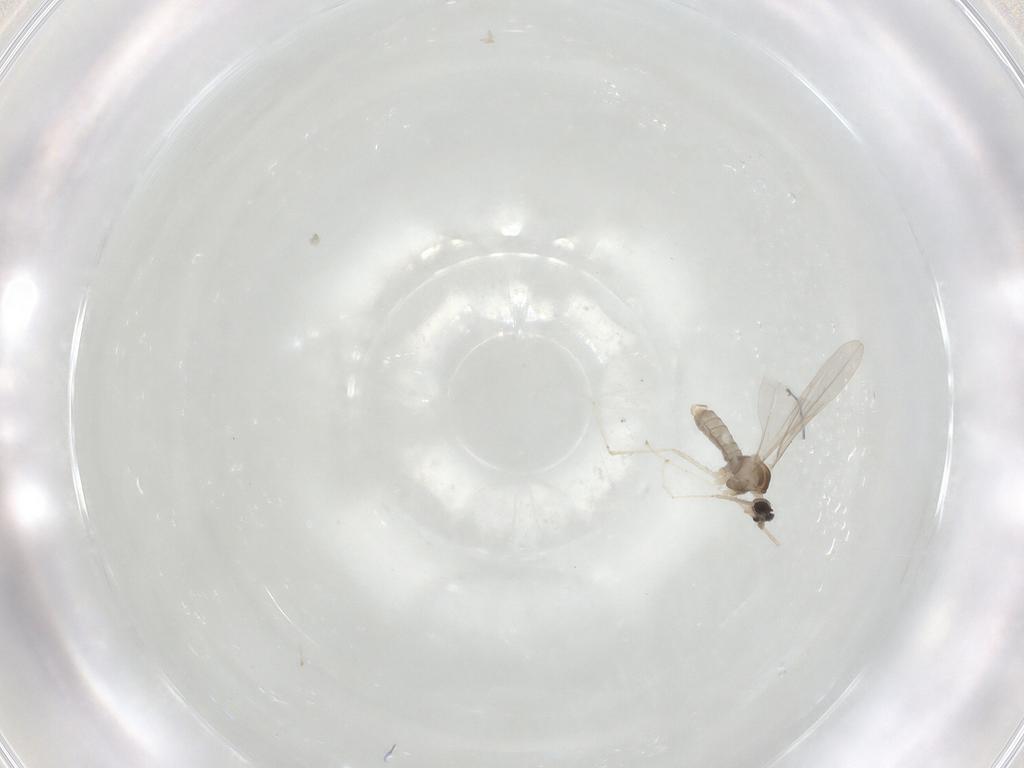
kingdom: Animalia
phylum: Arthropoda
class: Insecta
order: Diptera
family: Cecidomyiidae
